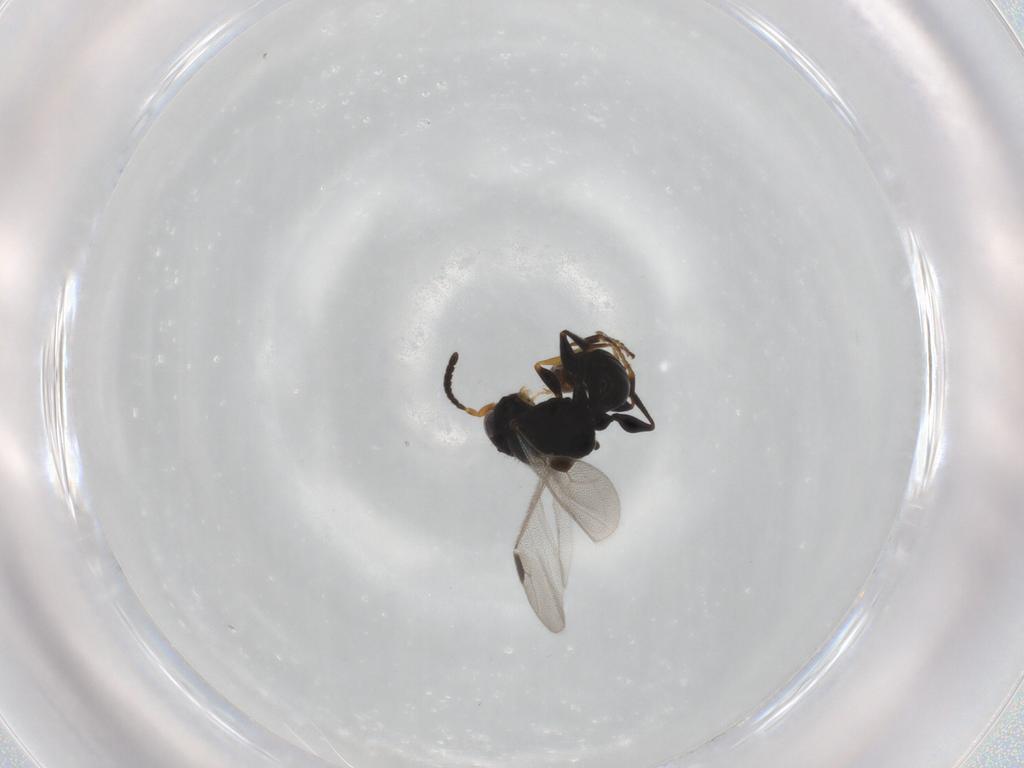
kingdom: Animalia
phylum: Arthropoda
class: Insecta
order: Hymenoptera
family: Dryinidae
